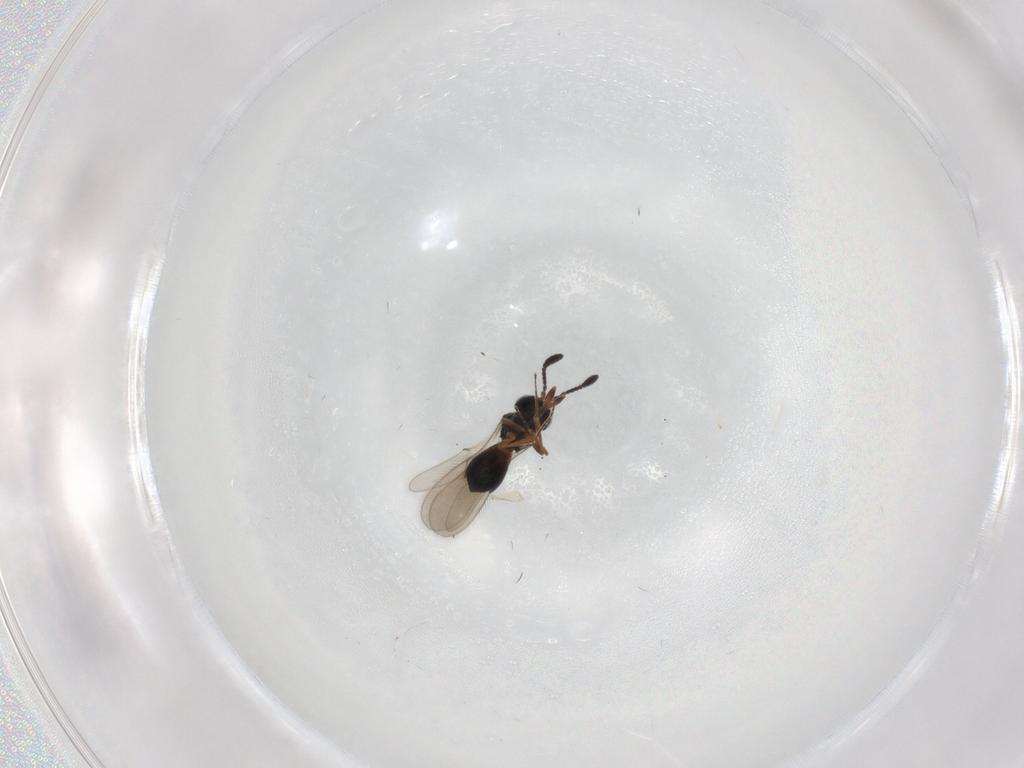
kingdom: Animalia
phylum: Arthropoda
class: Insecta
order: Hymenoptera
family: Scelionidae
